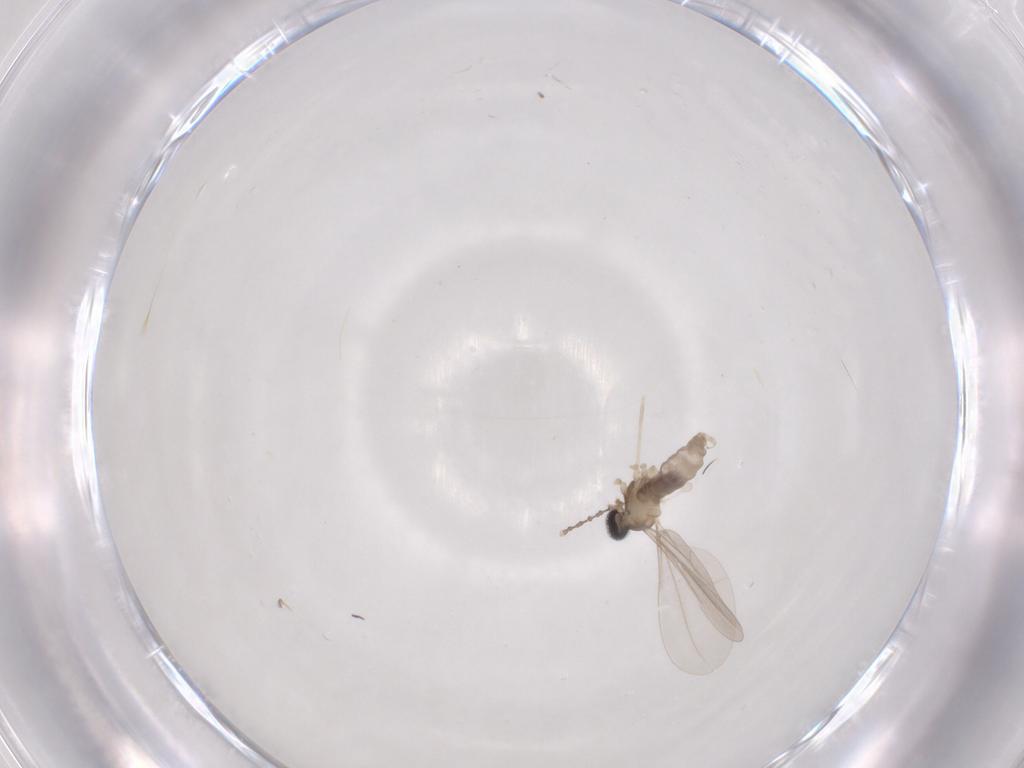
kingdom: Animalia
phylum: Arthropoda
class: Insecta
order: Diptera
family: Cecidomyiidae
